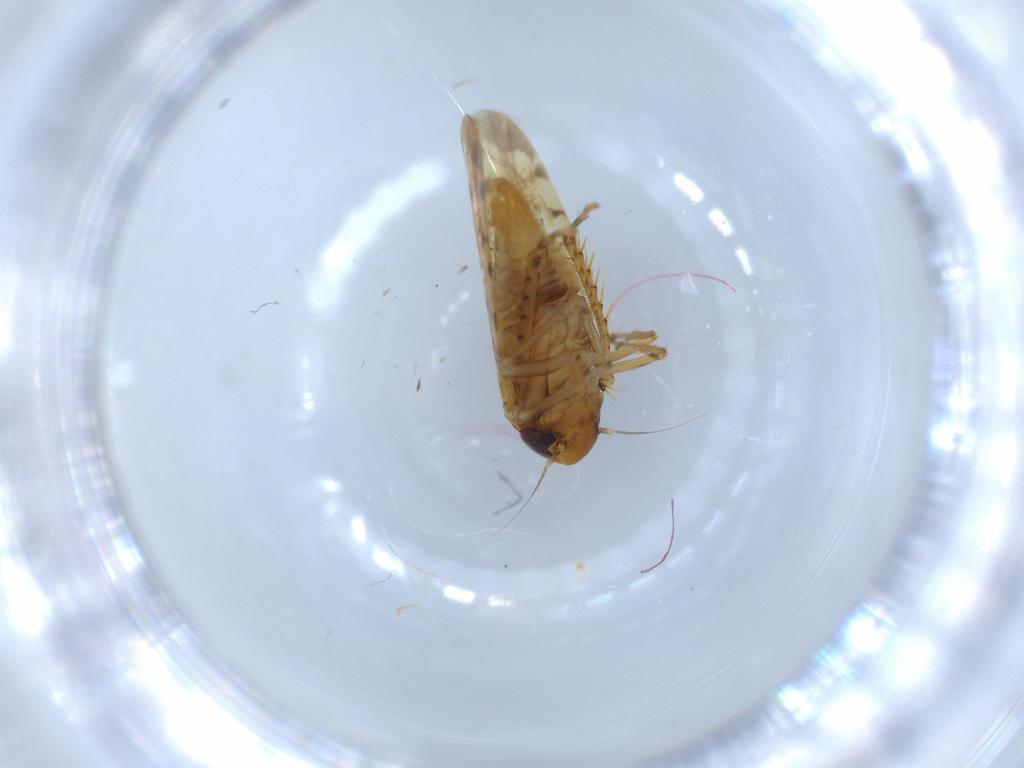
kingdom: Animalia
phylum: Arthropoda
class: Insecta
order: Hemiptera
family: Cicadellidae
